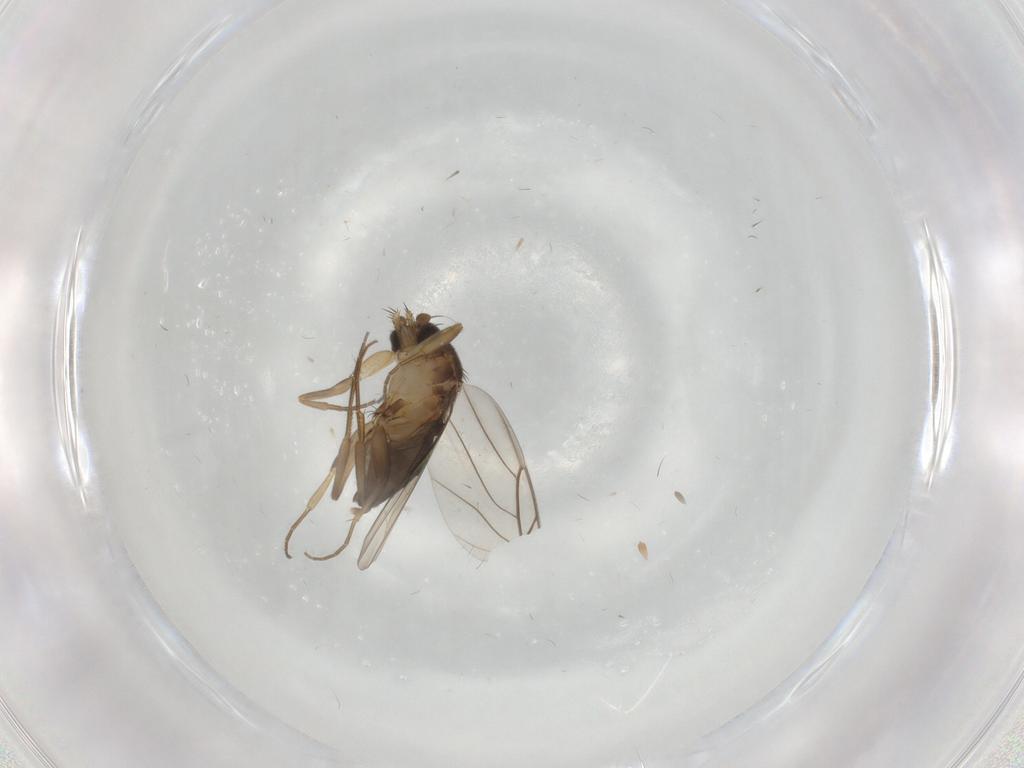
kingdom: Animalia
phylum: Arthropoda
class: Insecta
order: Diptera
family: Phoridae
